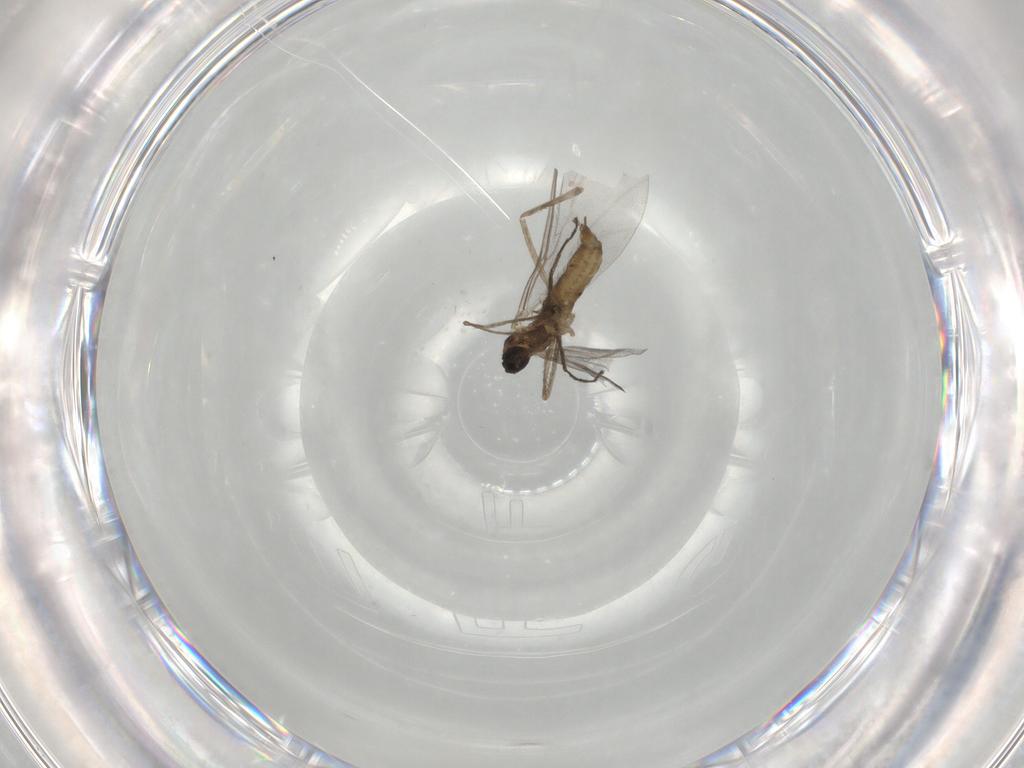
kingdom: Animalia
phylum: Arthropoda
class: Insecta
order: Diptera
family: Cecidomyiidae
